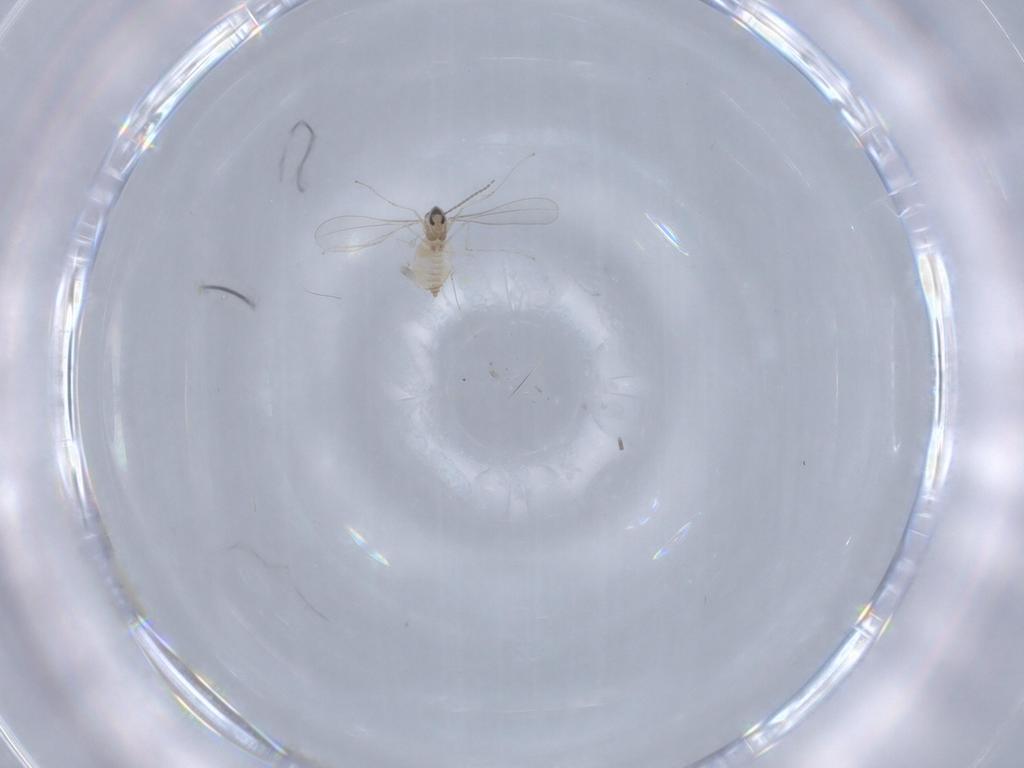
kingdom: Animalia
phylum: Arthropoda
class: Insecta
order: Diptera
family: Cecidomyiidae
